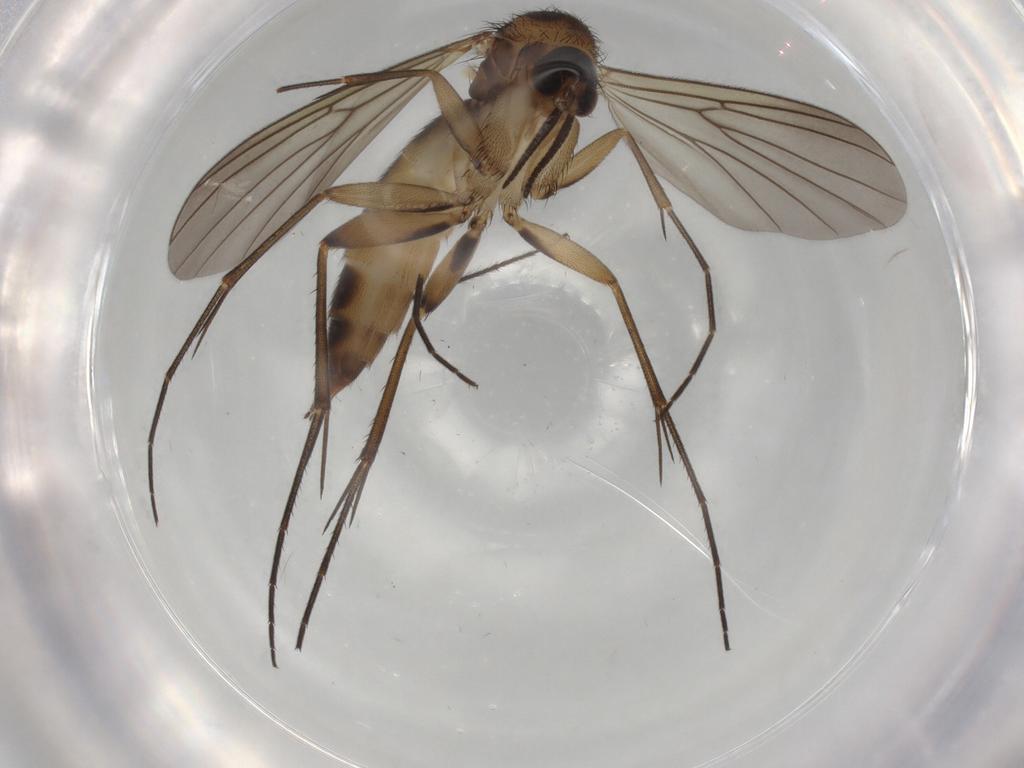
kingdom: Animalia
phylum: Arthropoda
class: Insecta
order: Diptera
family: Mycetophilidae
